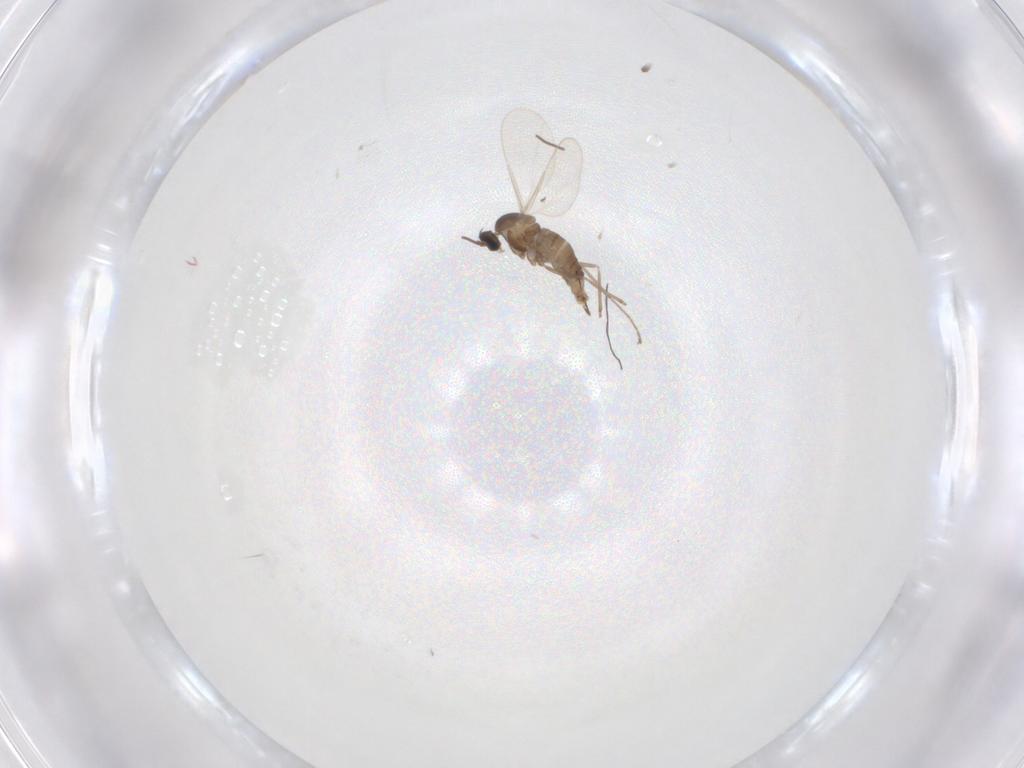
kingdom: Animalia
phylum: Arthropoda
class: Insecta
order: Diptera
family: Cecidomyiidae
